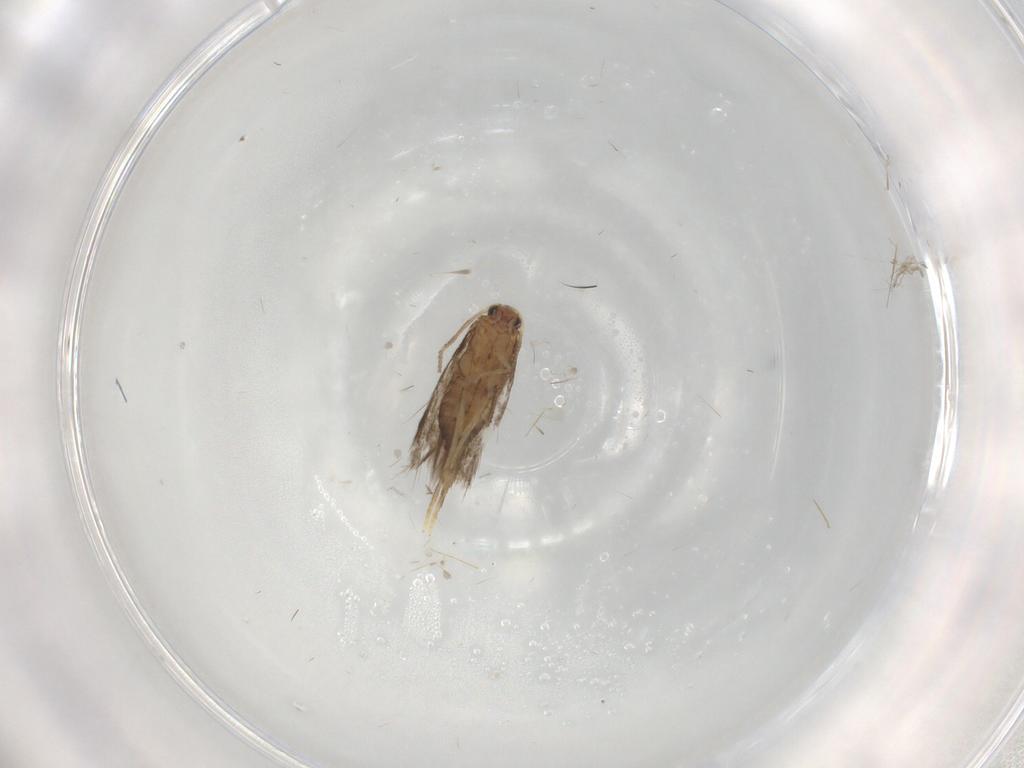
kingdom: Animalia
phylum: Arthropoda
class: Insecta
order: Lepidoptera
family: Nepticulidae
